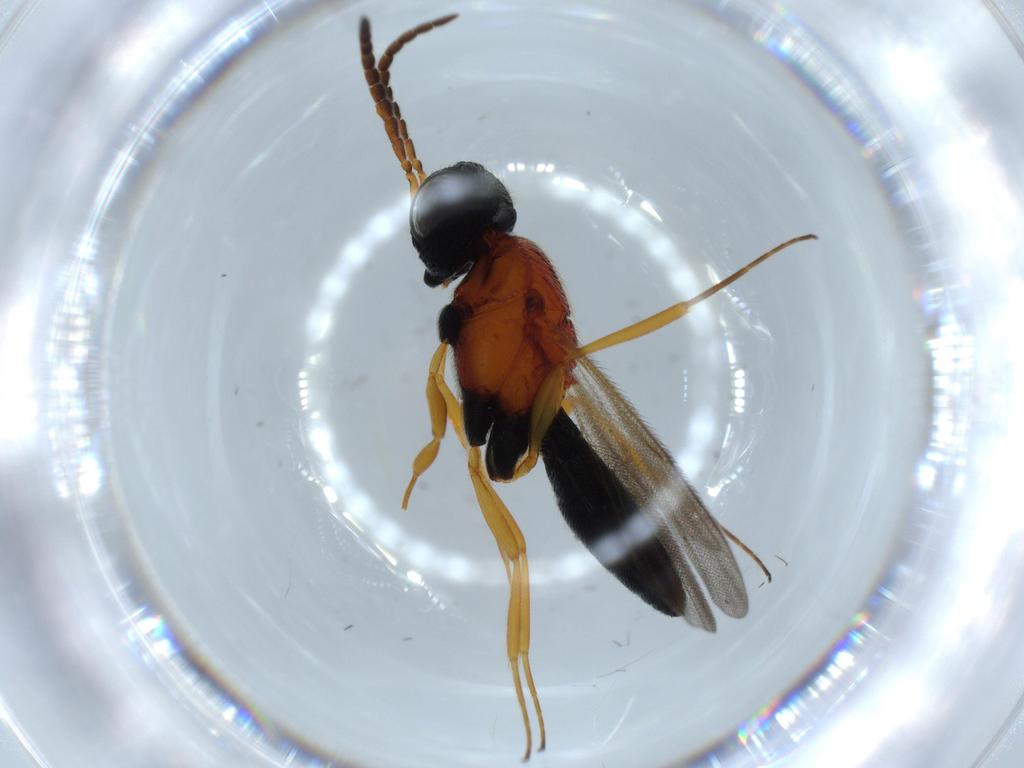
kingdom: Animalia
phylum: Arthropoda
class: Insecta
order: Hymenoptera
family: Scelionidae
